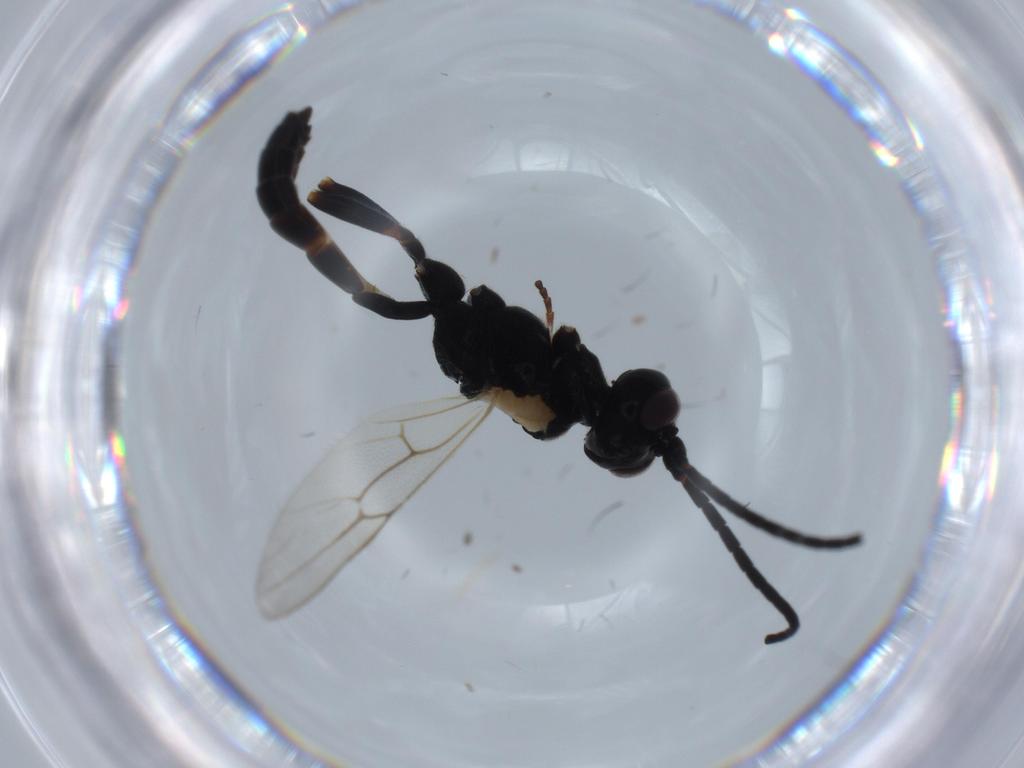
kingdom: Animalia
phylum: Arthropoda
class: Insecta
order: Hymenoptera
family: Ichneumonidae
